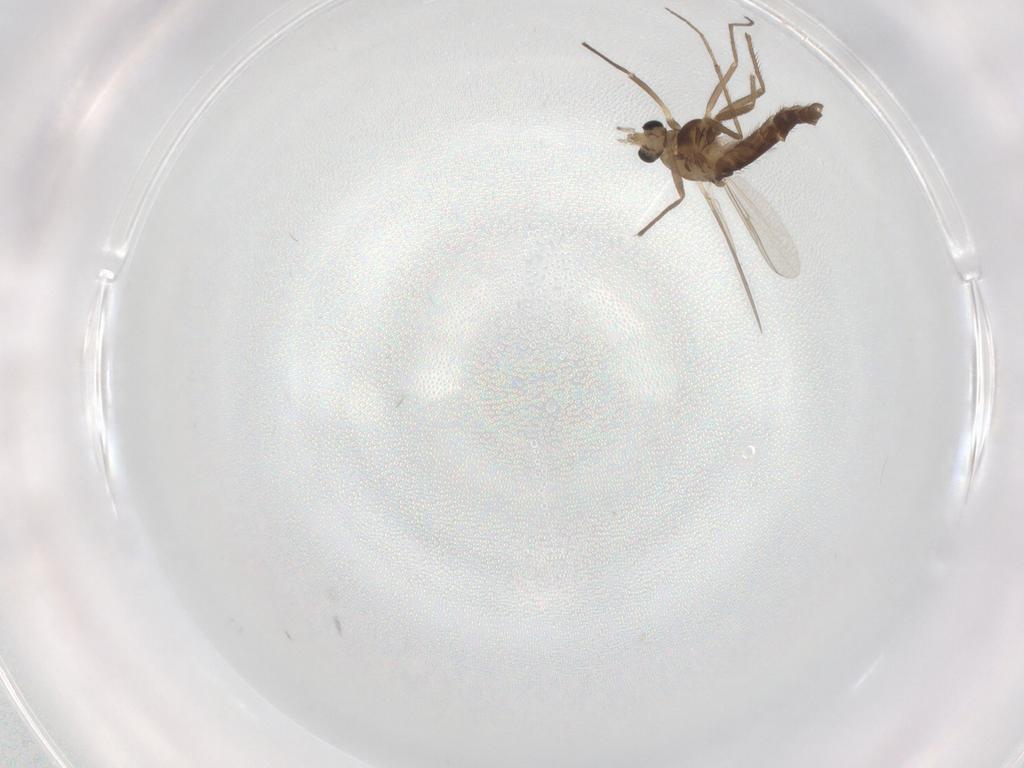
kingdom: Animalia
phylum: Arthropoda
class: Insecta
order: Diptera
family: Chironomidae
